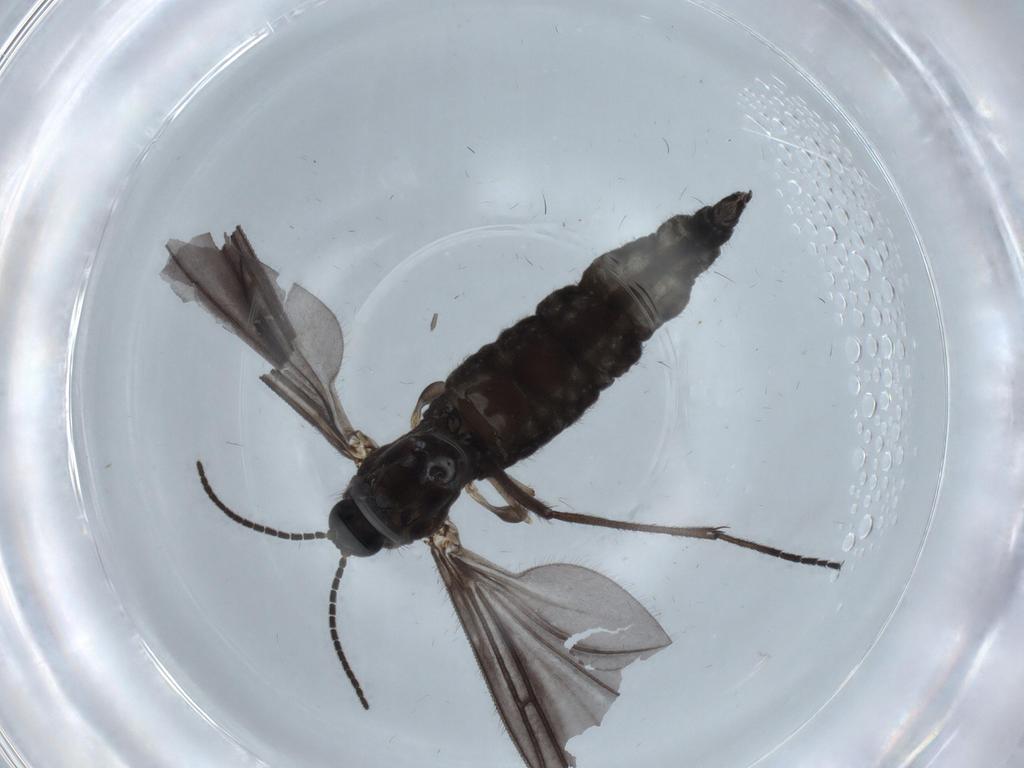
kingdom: Animalia
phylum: Arthropoda
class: Insecta
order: Diptera
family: Sciaridae
